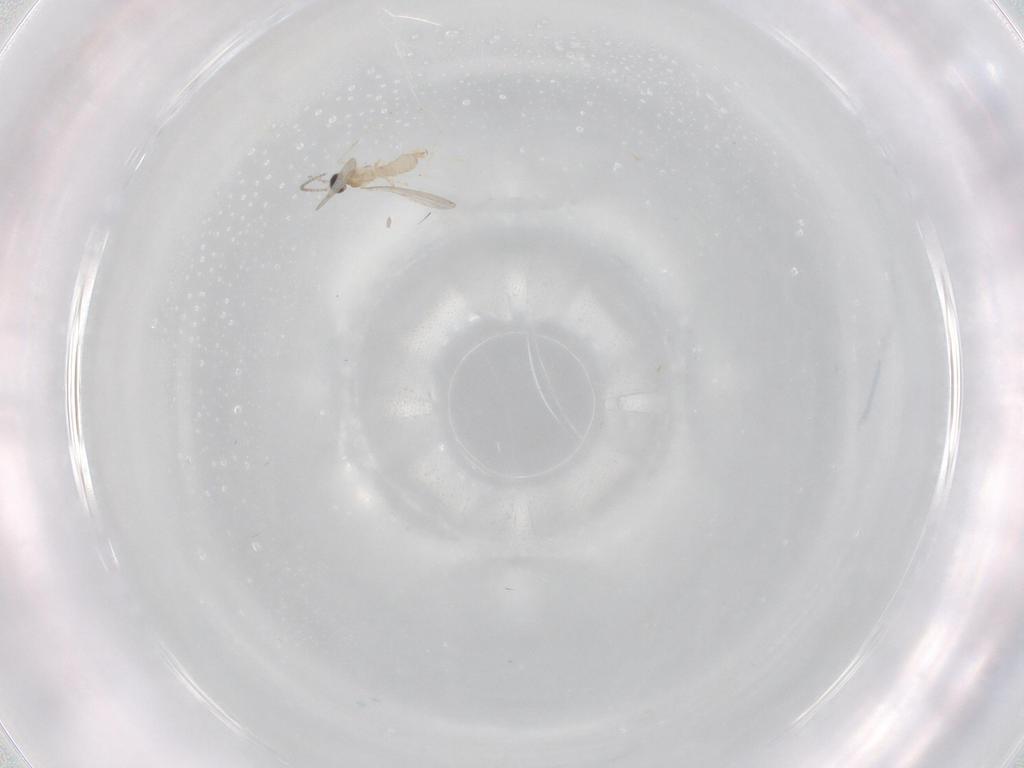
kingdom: Animalia
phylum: Arthropoda
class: Insecta
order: Diptera
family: Cecidomyiidae
